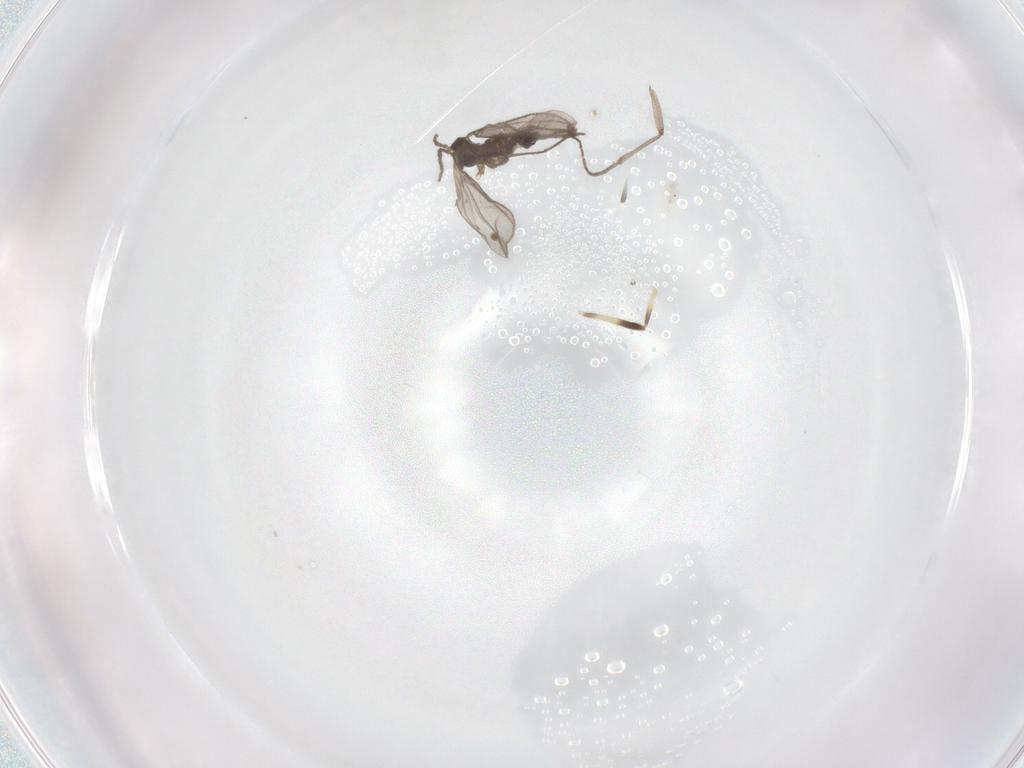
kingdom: Animalia
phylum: Arthropoda
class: Insecta
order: Diptera
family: Sciaridae
